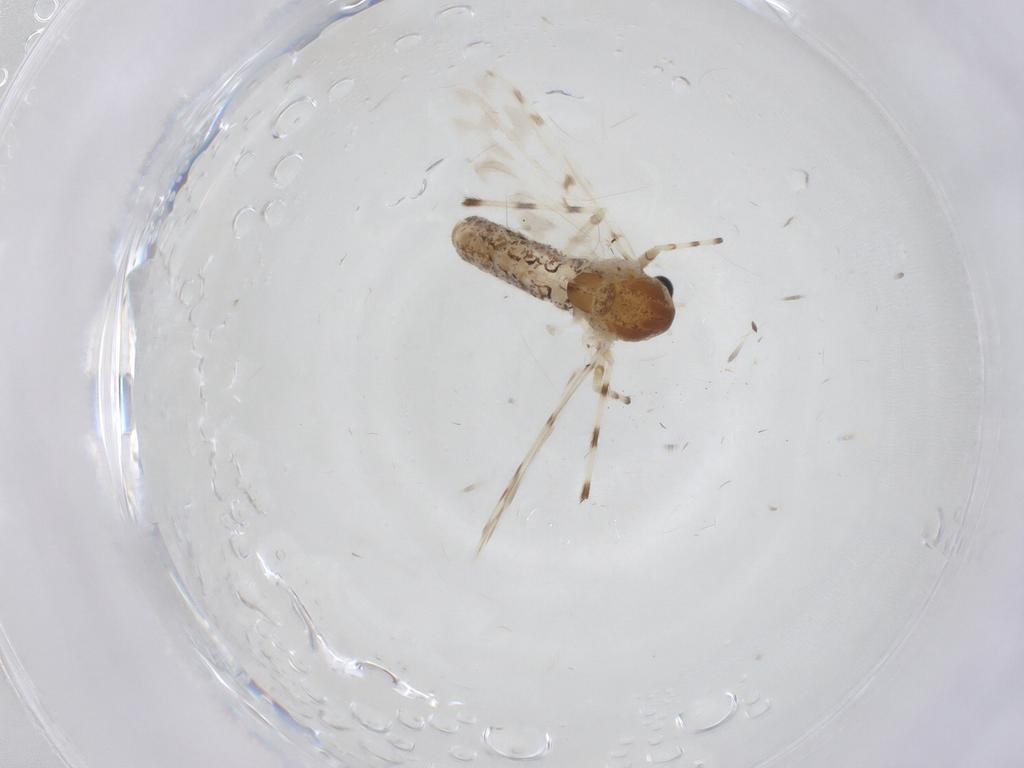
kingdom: Animalia
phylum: Arthropoda
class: Insecta
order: Diptera
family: Chironomidae
